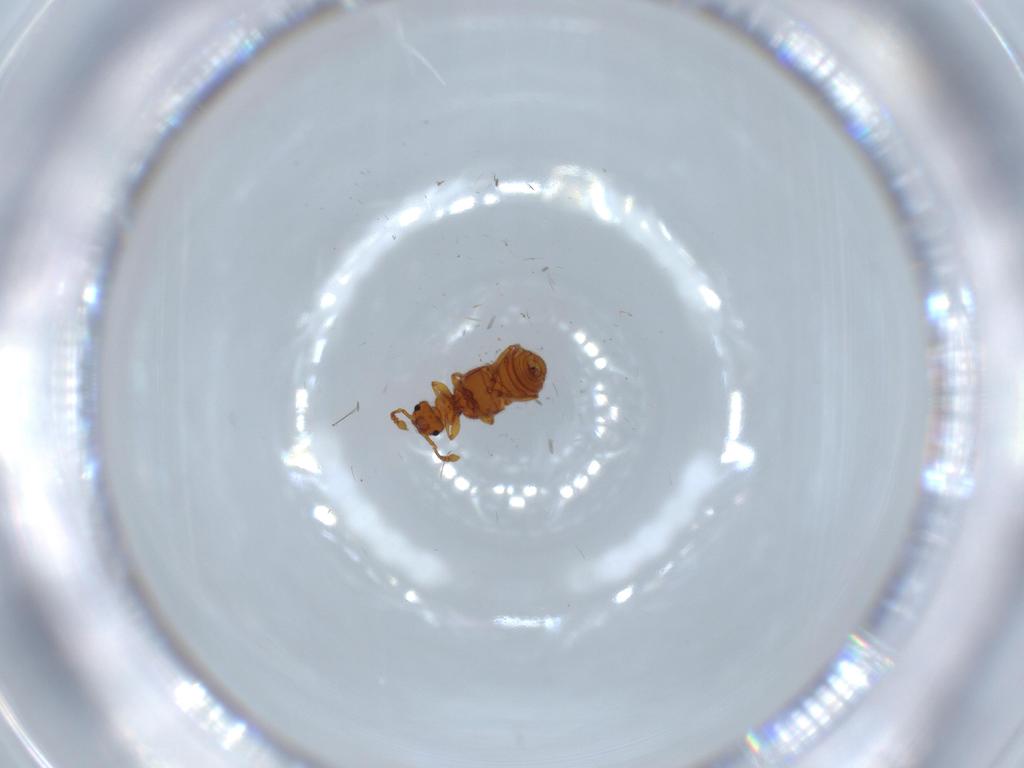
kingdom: Animalia
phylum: Arthropoda
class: Insecta
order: Coleoptera
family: Staphylinidae
